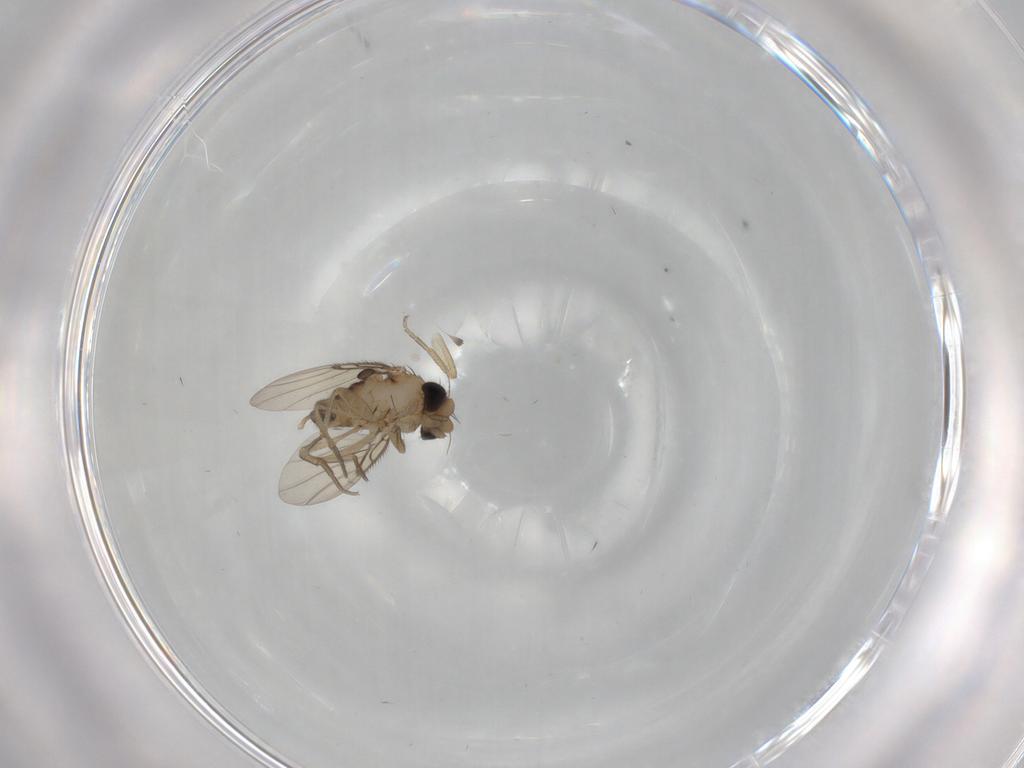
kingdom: Animalia
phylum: Arthropoda
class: Insecta
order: Diptera
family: Phoridae
